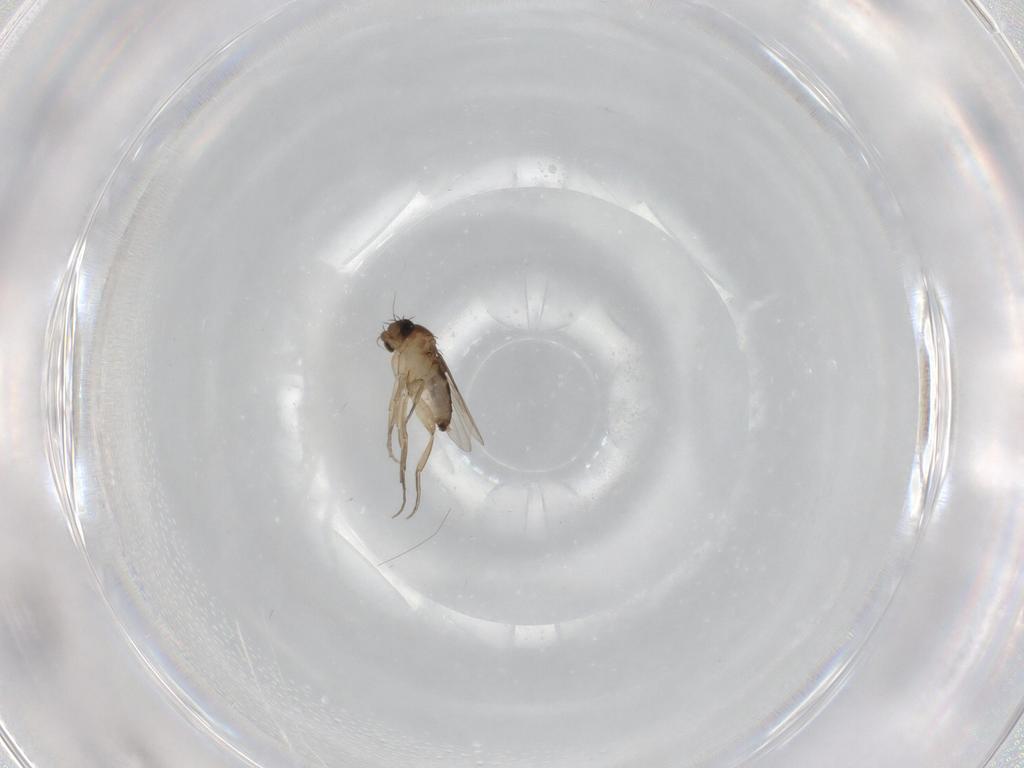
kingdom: Animalia
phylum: Arthropoda
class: Insecta
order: Diptera
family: Phoridae
